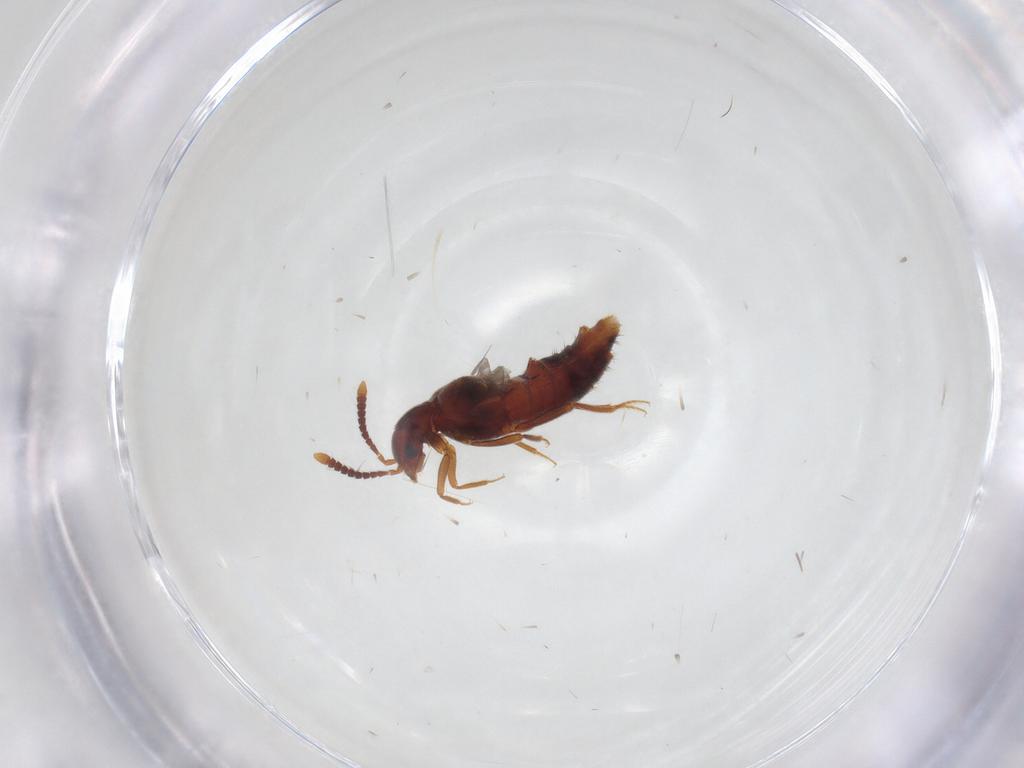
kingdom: Animalia
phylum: Arthropoda
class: Insecta
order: Coleoptera
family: Staphylinidae
